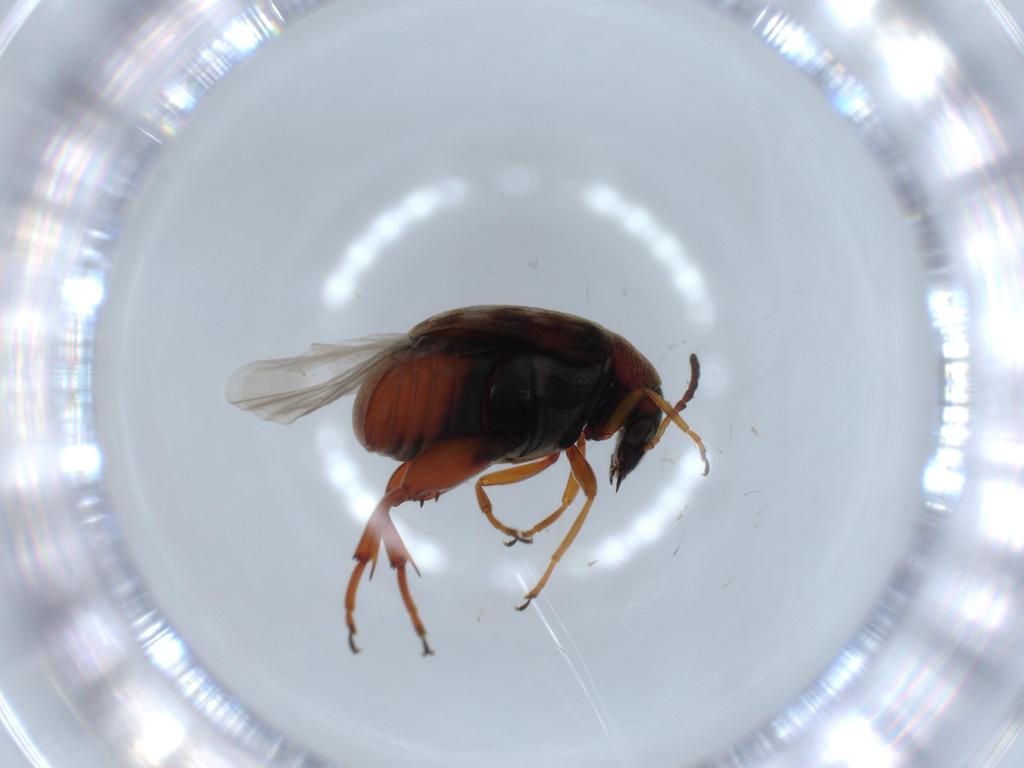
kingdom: Animalia
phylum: Arthropoda
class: Insecta
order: Coleoptera
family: Chrysomelidae
